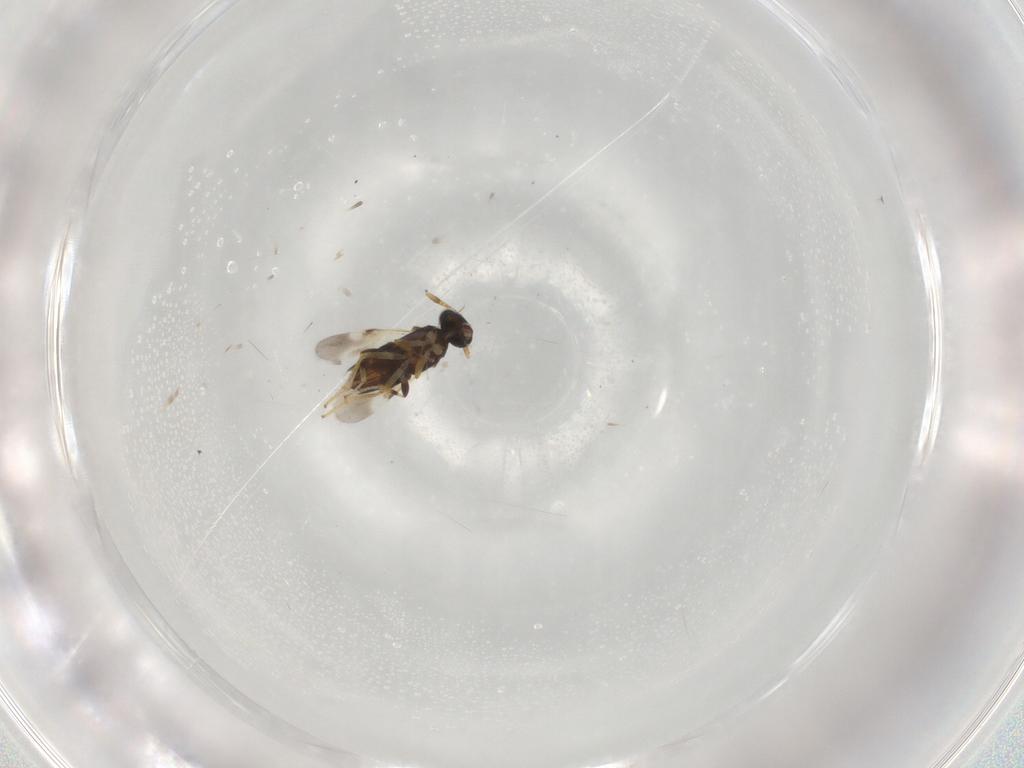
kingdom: Animalia
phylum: Arthropoda
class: Insecta
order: Hymenoptera
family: Encyrtidae
